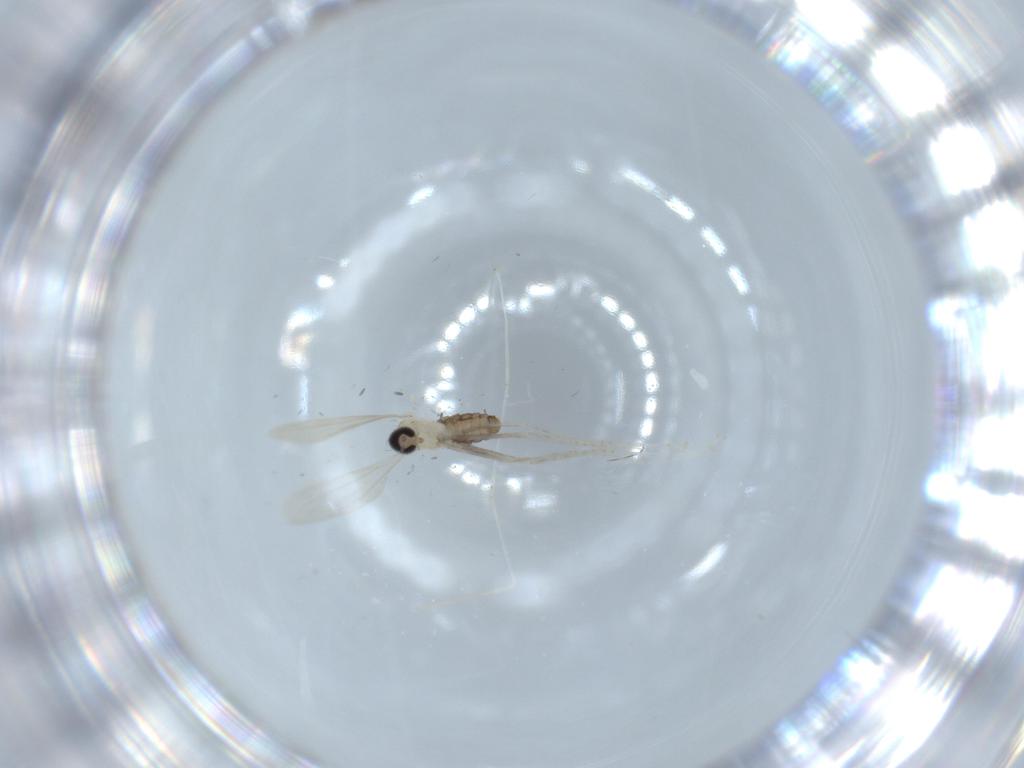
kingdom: Animalia
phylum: Arthropoda
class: Insecta
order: Diptera
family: Cecidomyiidae
